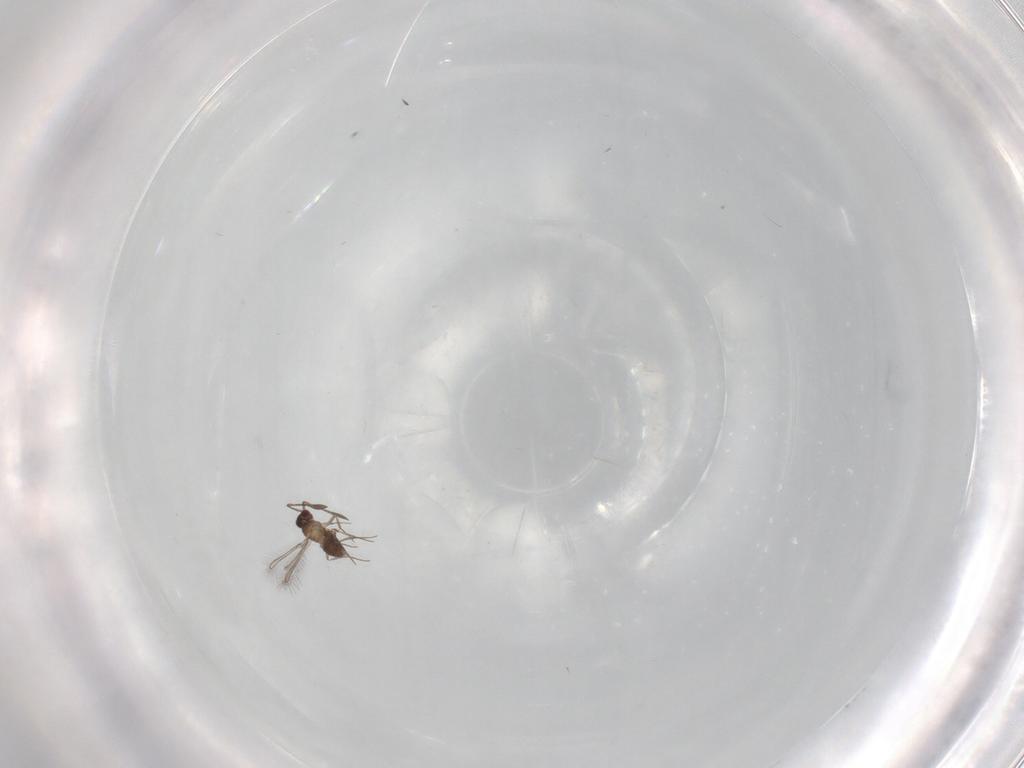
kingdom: Animalia
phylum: Arthropoda
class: Insecta
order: Hymenoptera
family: Mymaridae
